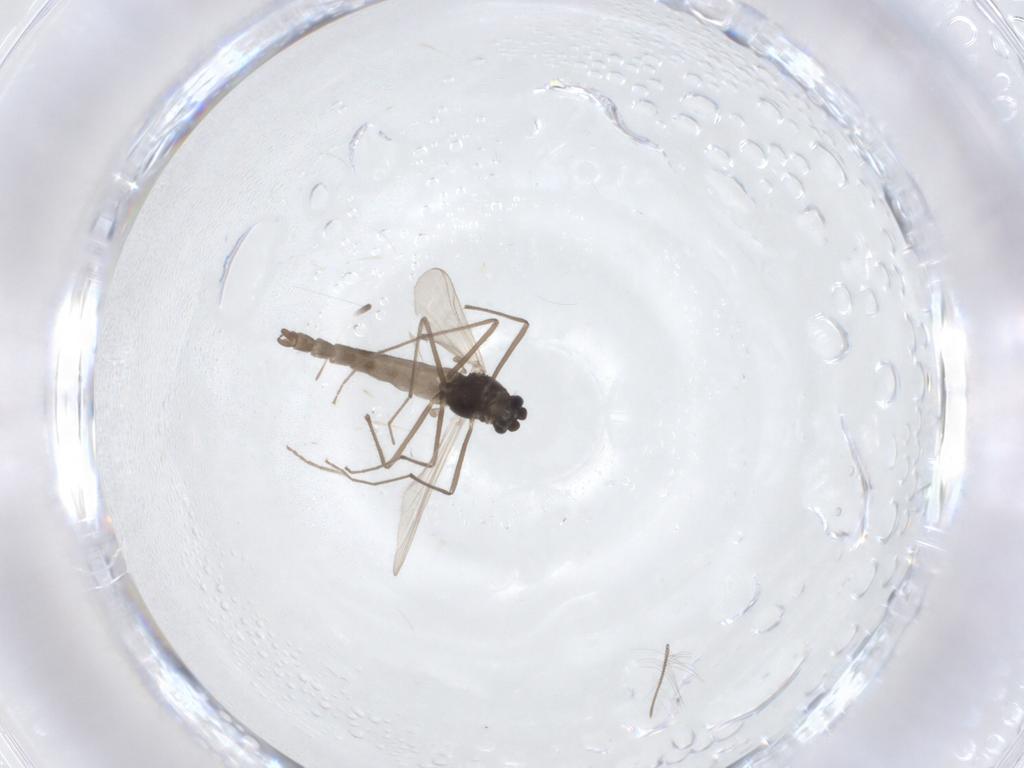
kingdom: Animalia
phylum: Arthropoda
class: Insecta
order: Diptera
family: Chironomidae
